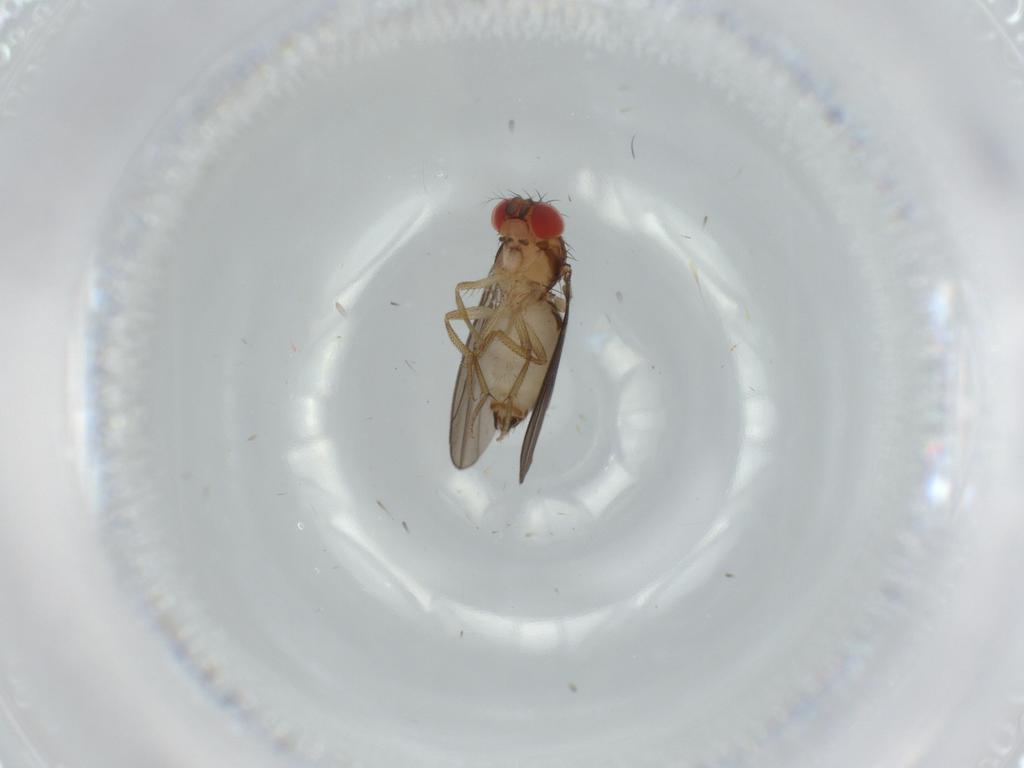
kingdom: Animalia
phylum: Arthropoda
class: Insecta
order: Diptera
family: Drosophilidae
